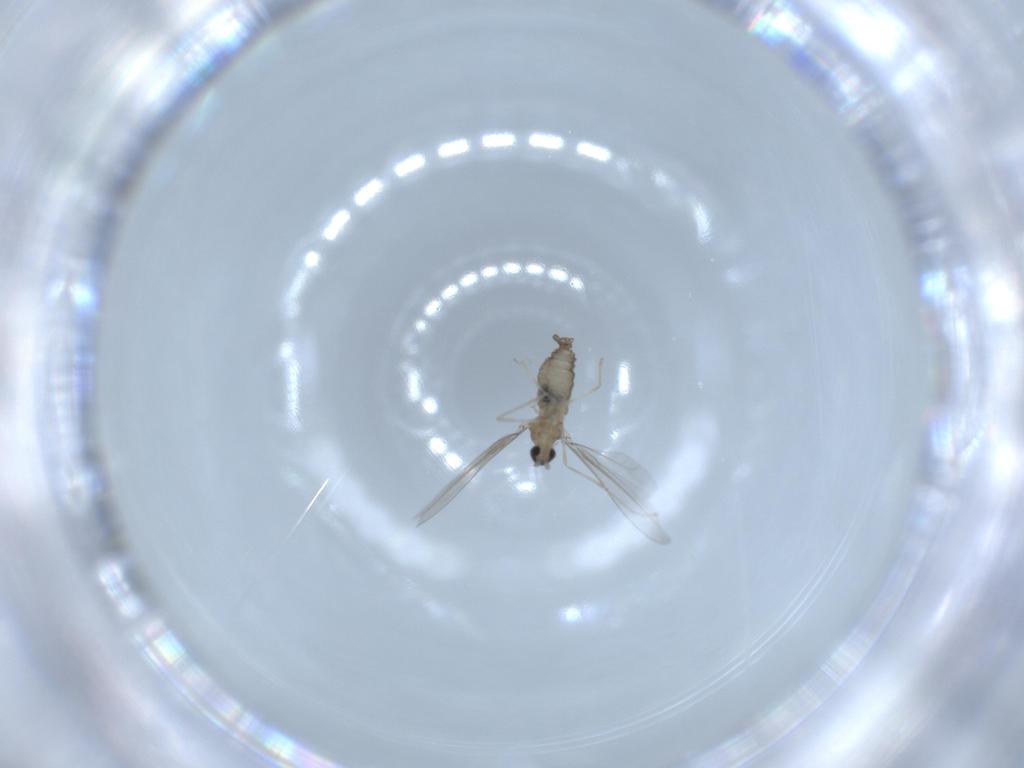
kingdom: Animalia
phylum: Arthropoda
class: Insecta
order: Diptera
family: Cecidomyiidae
